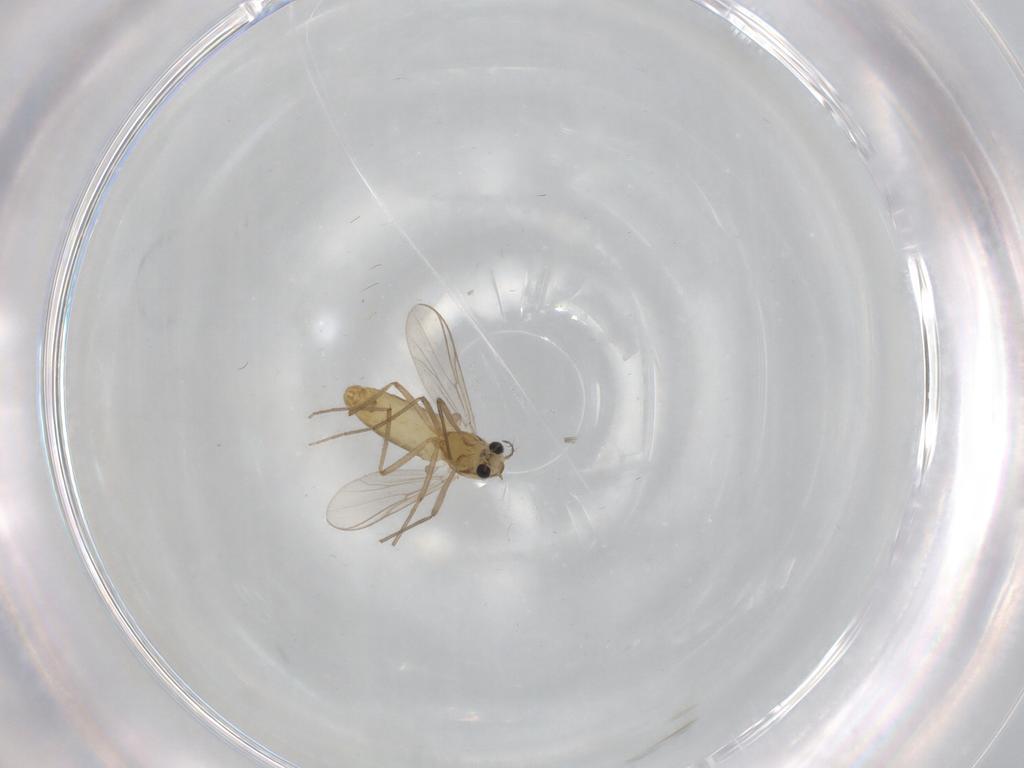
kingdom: Animalia
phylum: Arthropoda
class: Insecta
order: Diptera
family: Chironomidae
